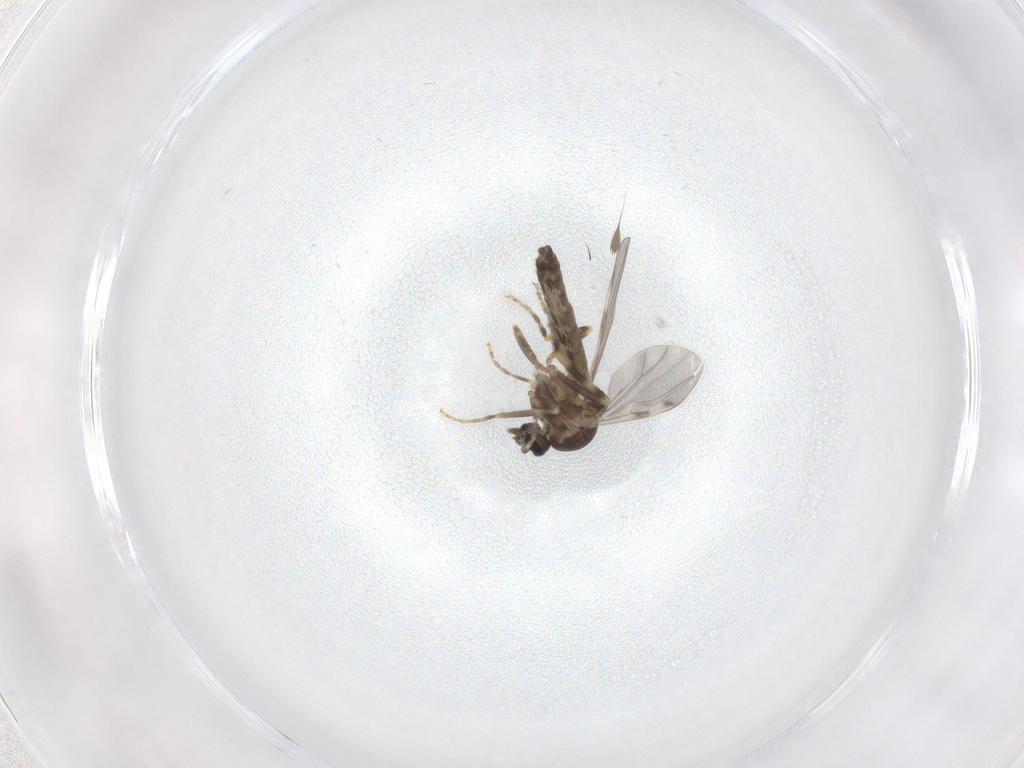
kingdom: Animalia
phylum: Arthropoda
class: Insecta
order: Diptera
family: Ceratopogonidae
